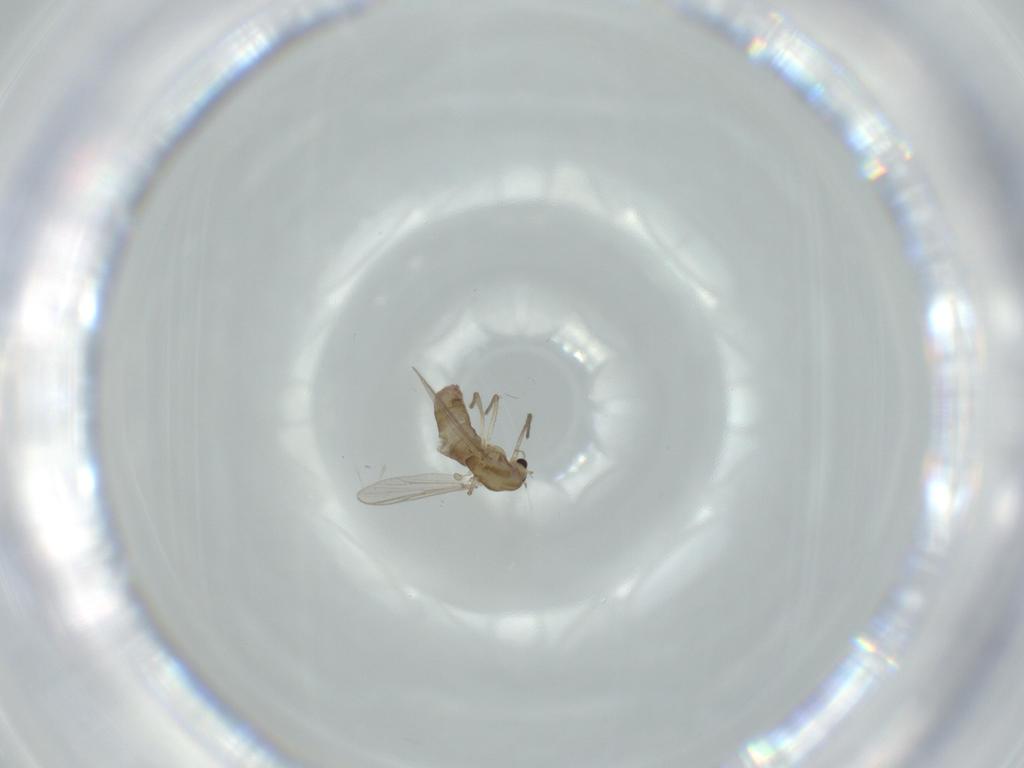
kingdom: Animalia
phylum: Arthropoda
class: Insecta
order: Diptera
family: Chironomidae
